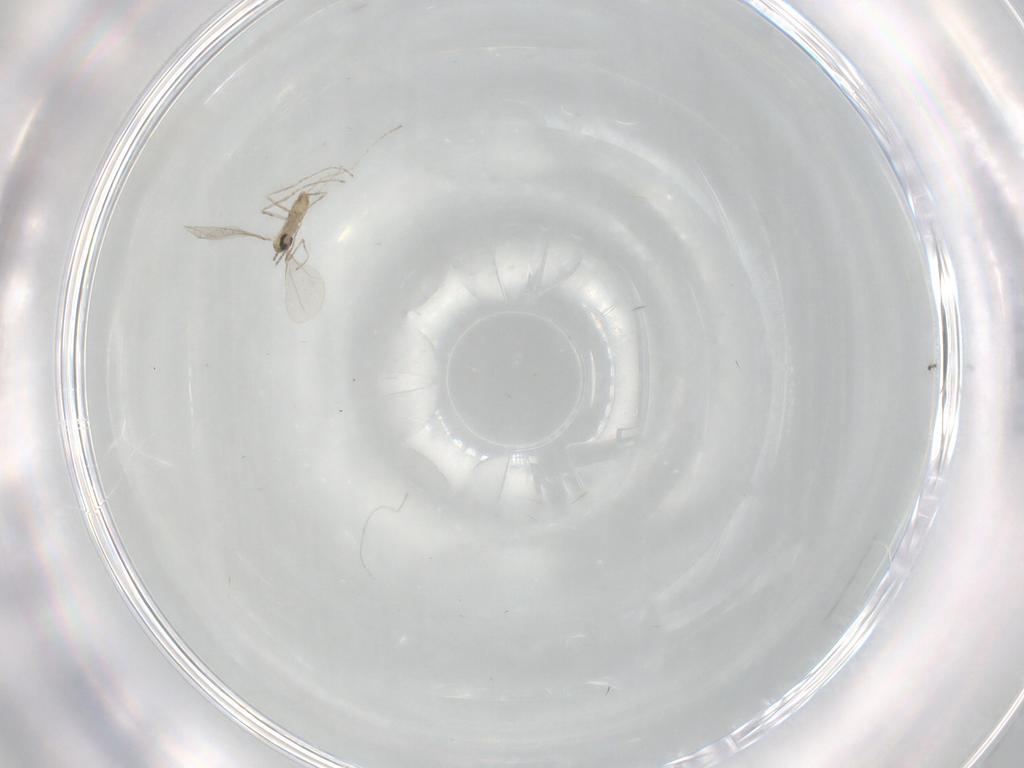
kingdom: Animalia
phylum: Arthropoda
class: Insecta
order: Diptera
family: Cecidomyiidae
